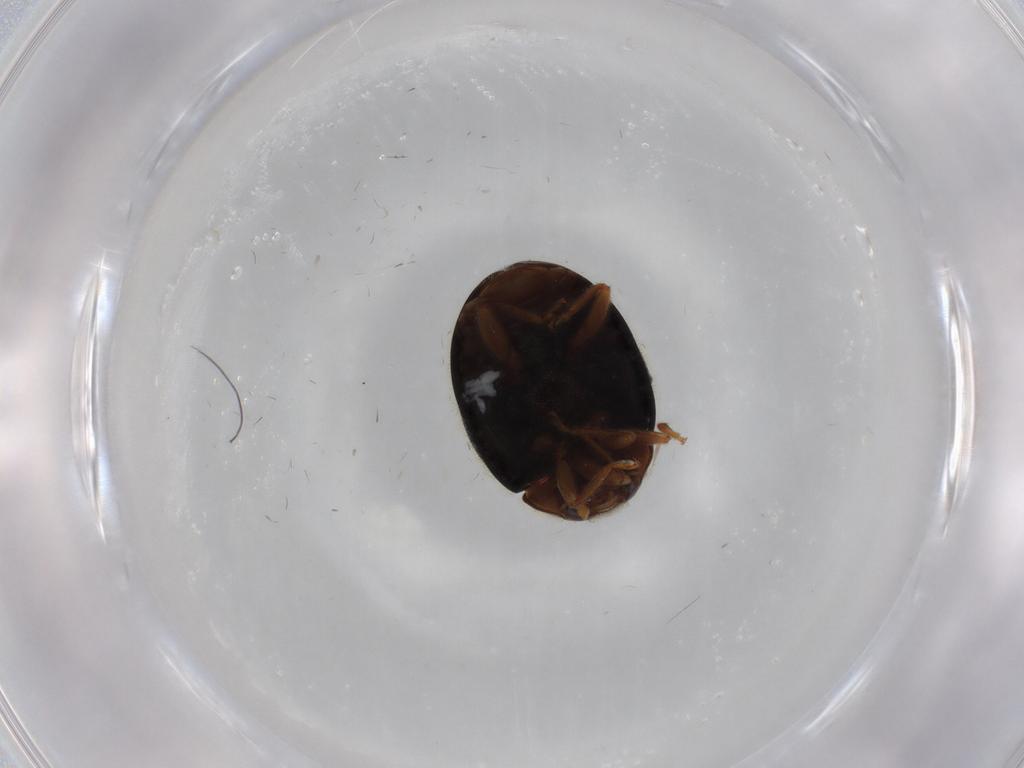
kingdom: Animalia
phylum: Arthropoda
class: Insecta
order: Coleoptera
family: Coccinellidae
